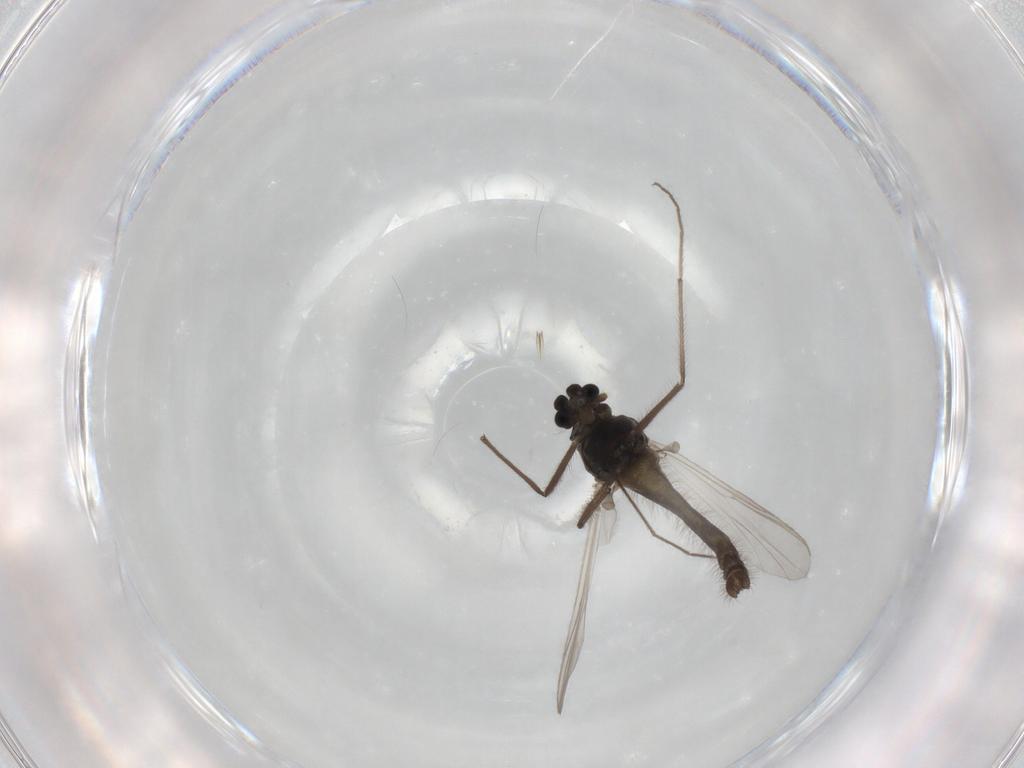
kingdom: Animalia
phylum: Arthropoda
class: Insecta
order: Diptera
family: Chironomidae
